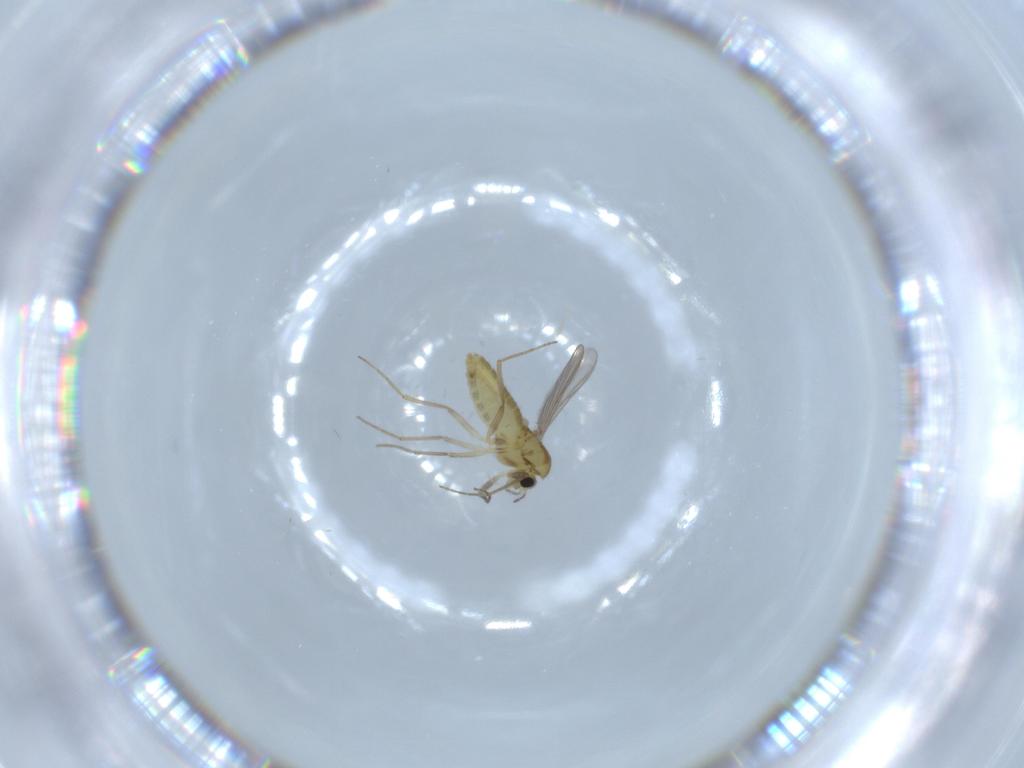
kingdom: Animalia
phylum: Arthropoda
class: Insecta
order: Diptera
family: Chironomidae
